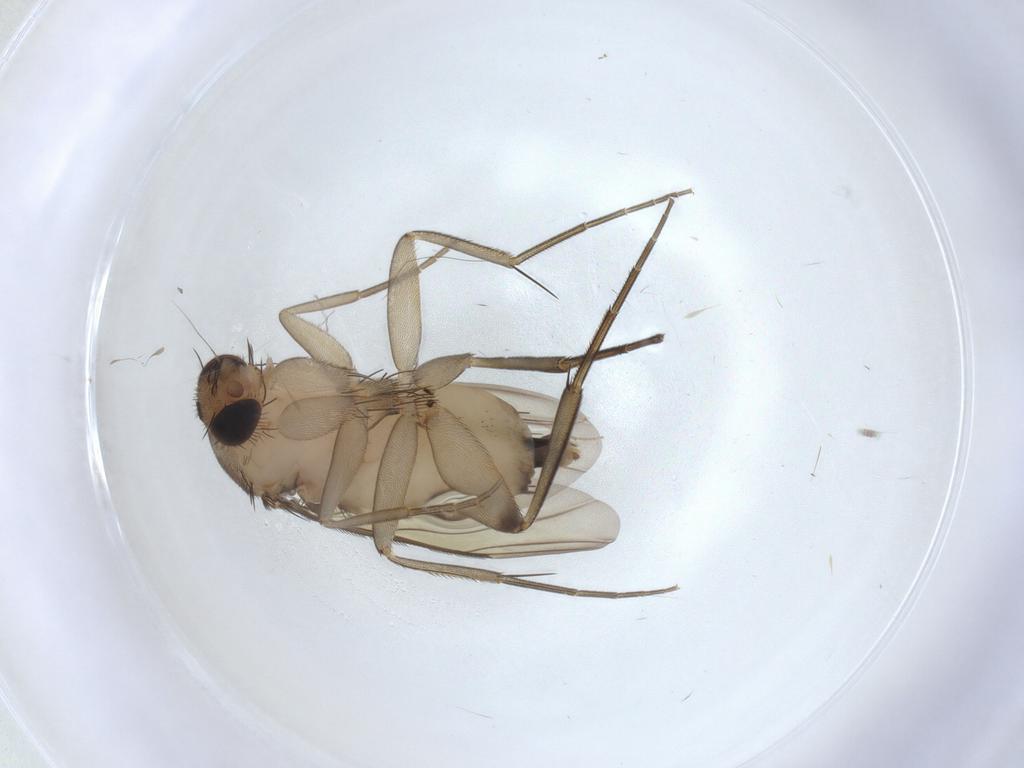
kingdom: Animalia
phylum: Arthropoda
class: Insecta
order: Diptera
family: Phoridae
